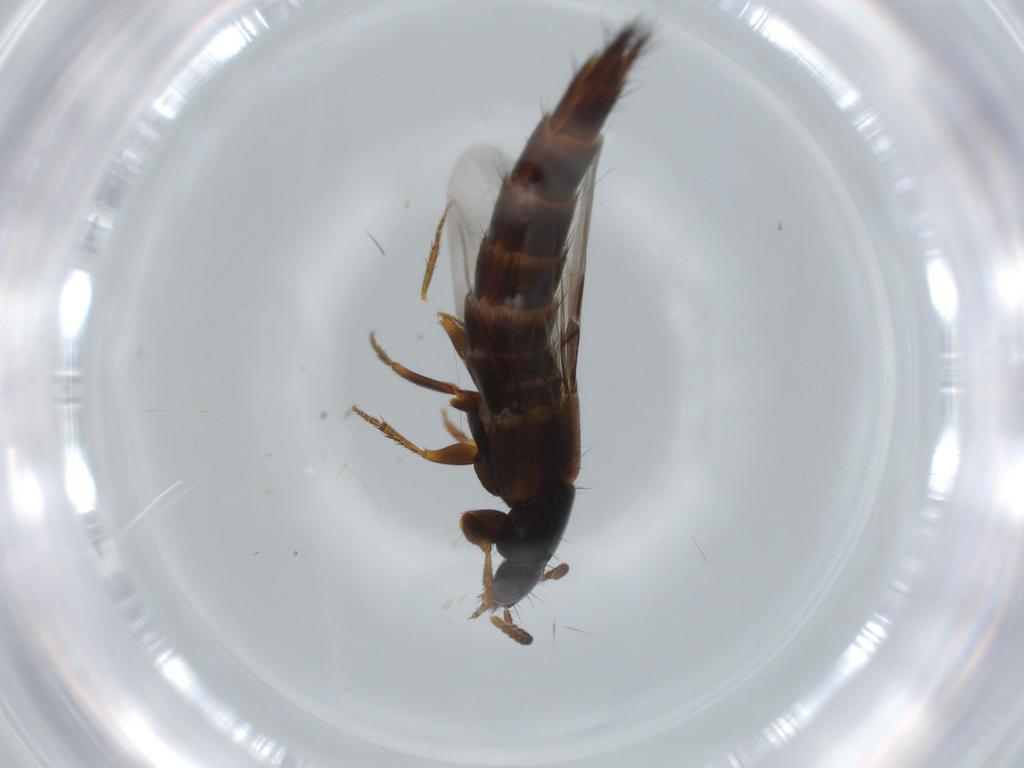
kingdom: Animalia
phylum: Arthropoda
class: Insecta
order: Coleoptera
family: Staphylinidae
